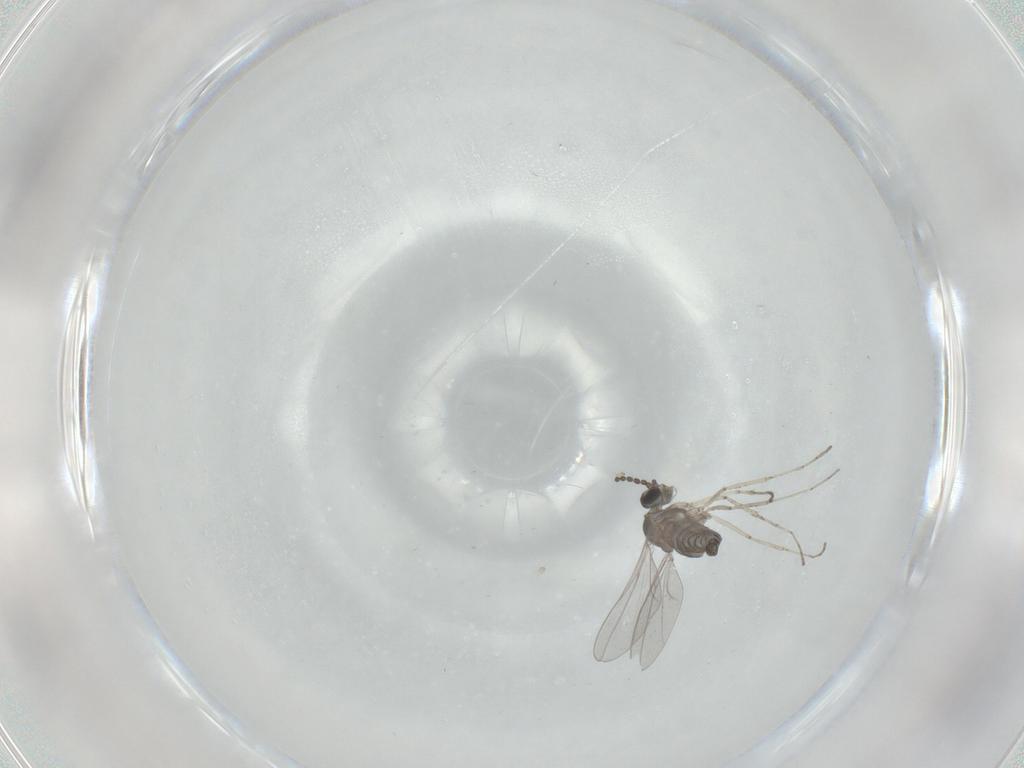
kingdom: Animalia
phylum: Arthropoda
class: Insecta
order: Diptera
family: Cecidomyiidae
